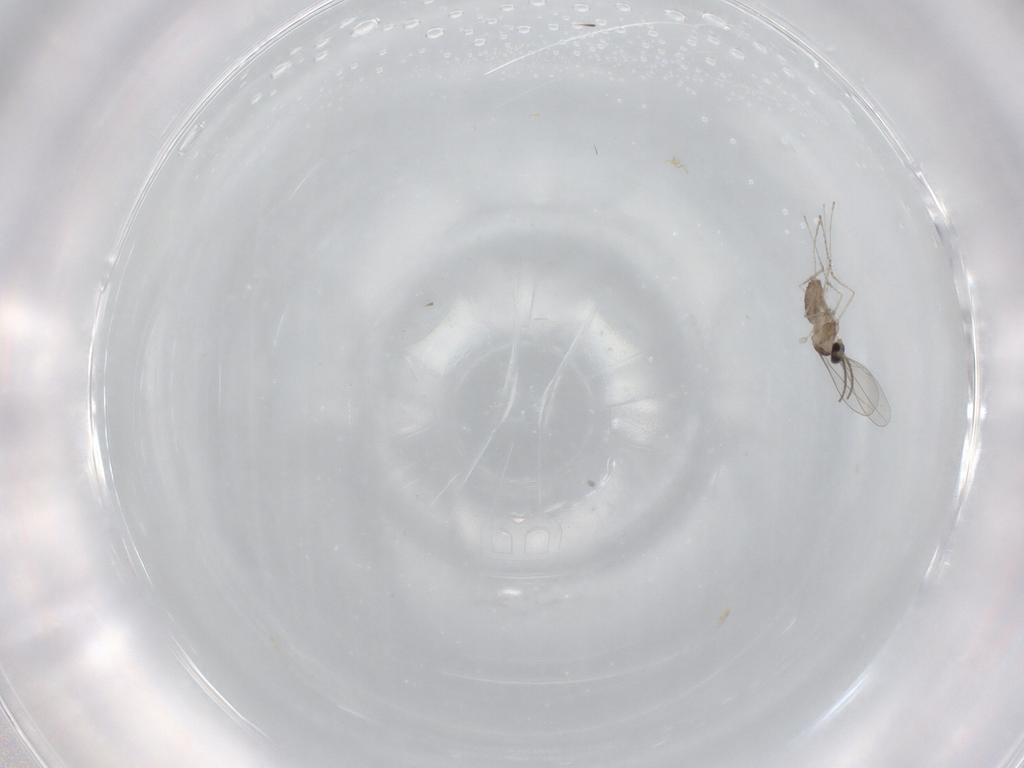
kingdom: Animalia
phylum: Arthropoda
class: Insecta
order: Diptera
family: Cecidomyiidae
